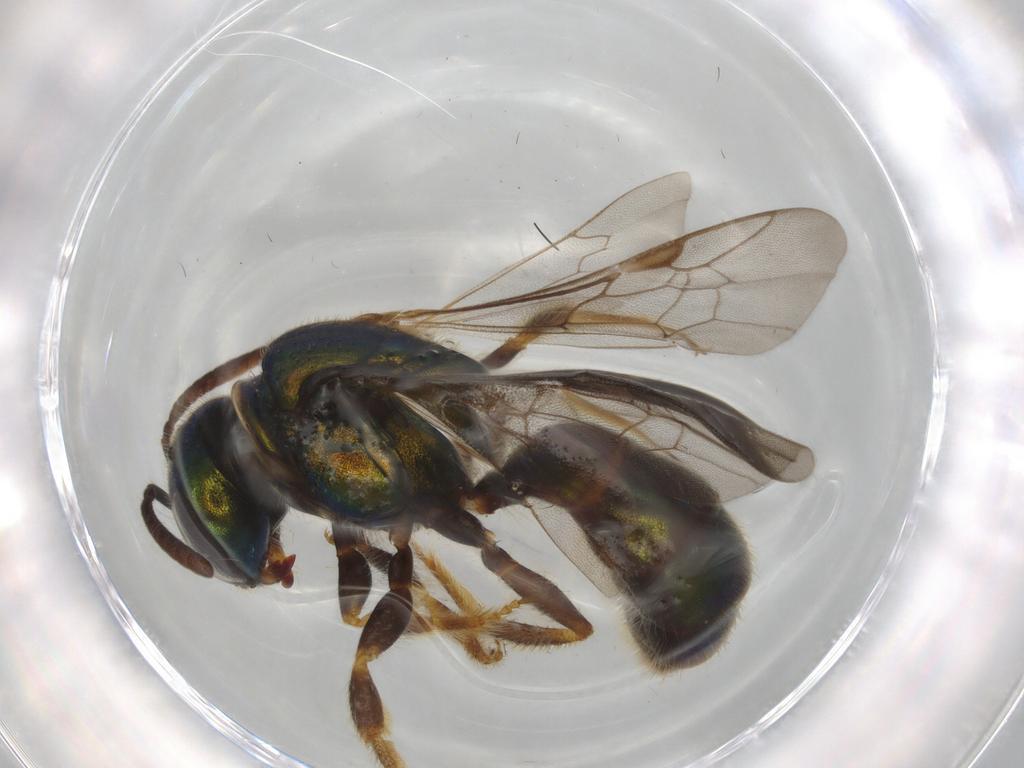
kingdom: Animalia
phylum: Arthropoda
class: Insecta
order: Hymenoptera
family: Halictidae
